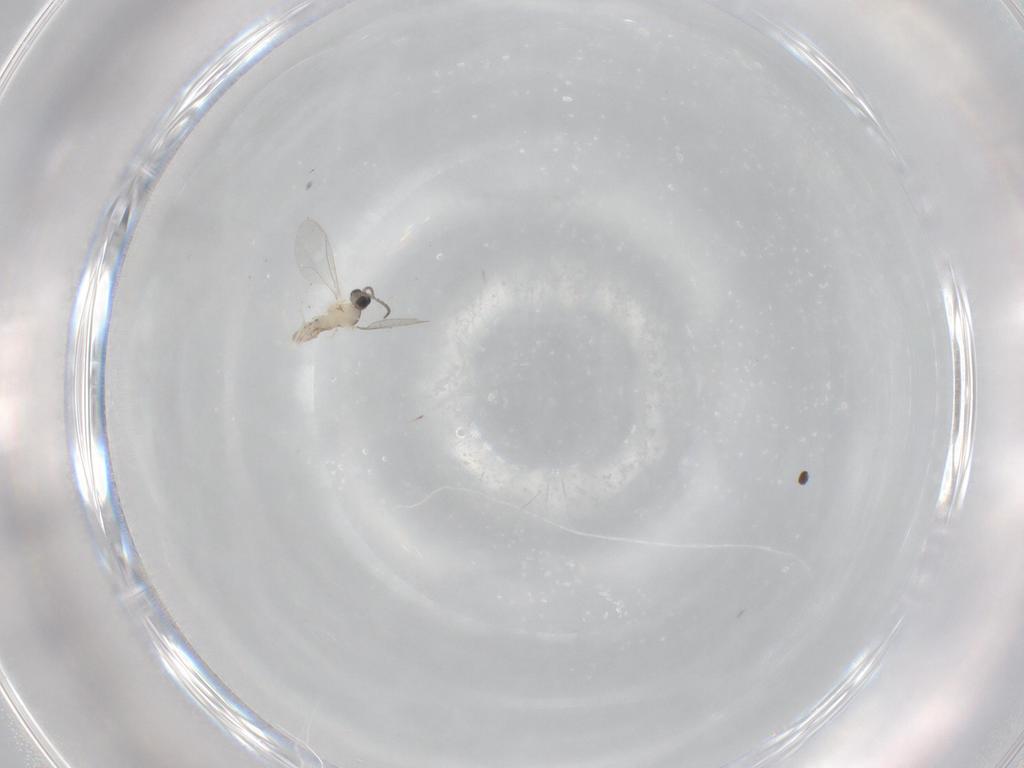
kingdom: Animalia
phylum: Arthropoda
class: Insecta
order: Diptera
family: Cecidomyiidae
